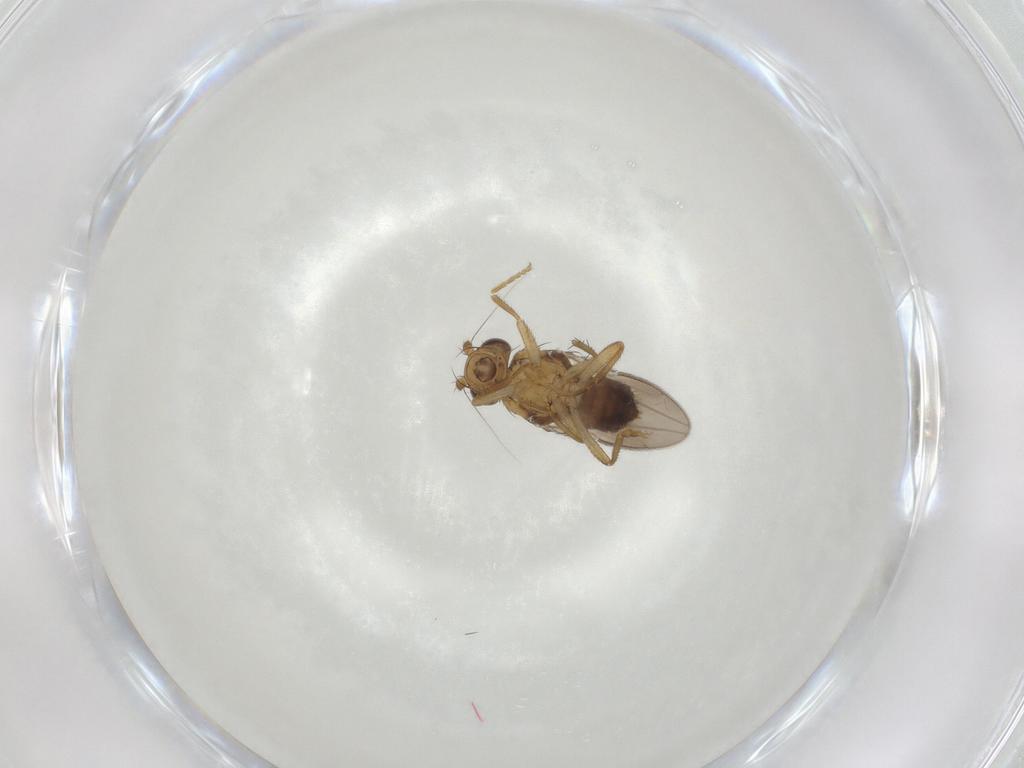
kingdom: Animalia
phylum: Arthropoda
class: Insecta
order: Diptera
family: Sphaeroceridae
